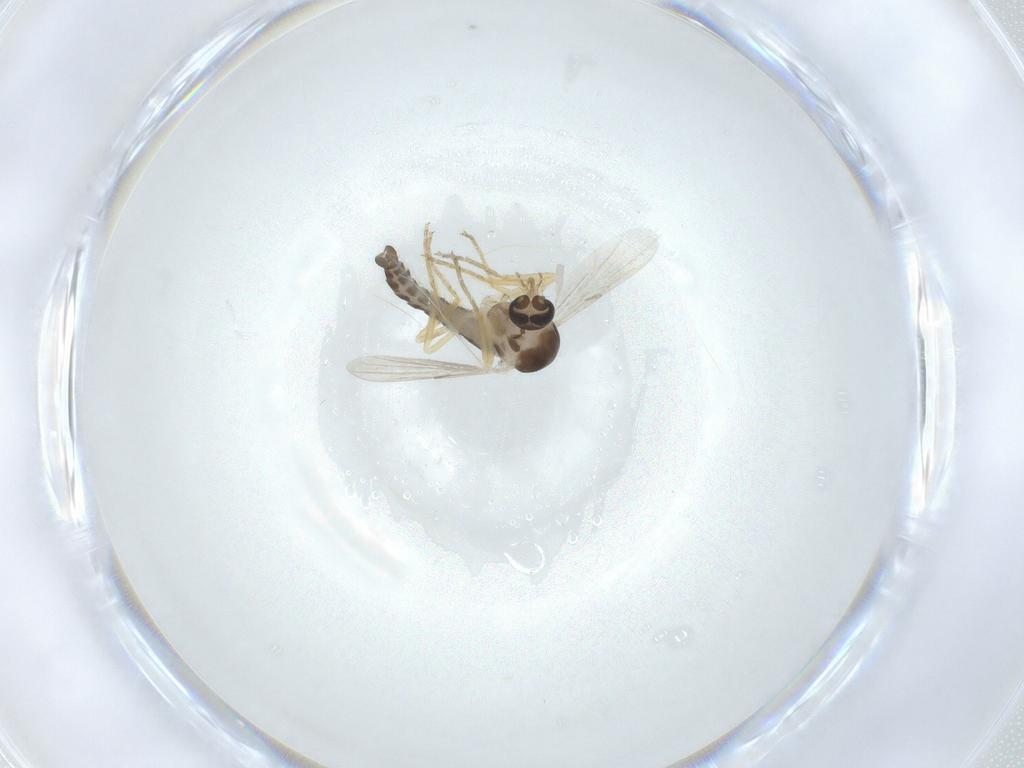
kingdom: Animalia
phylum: Arthropoda
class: Insecta
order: Diptera
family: Ceratopogonidae
